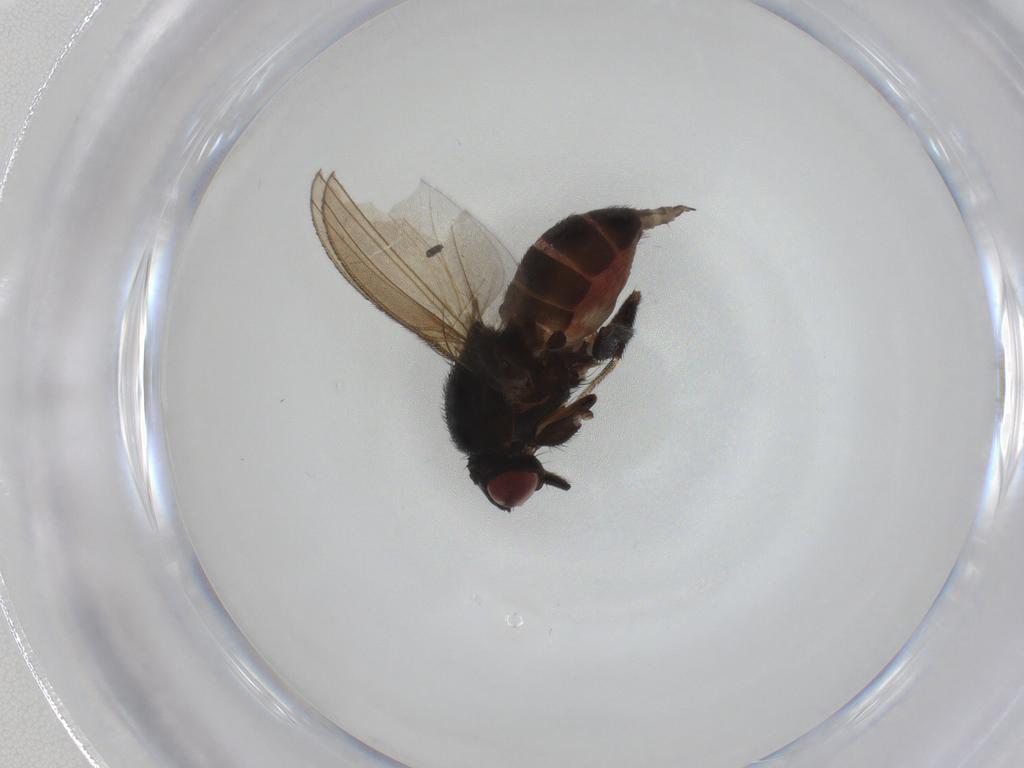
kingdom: Animalia
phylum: Arthropoda
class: Insecta
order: Diptera
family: Milichiidae
